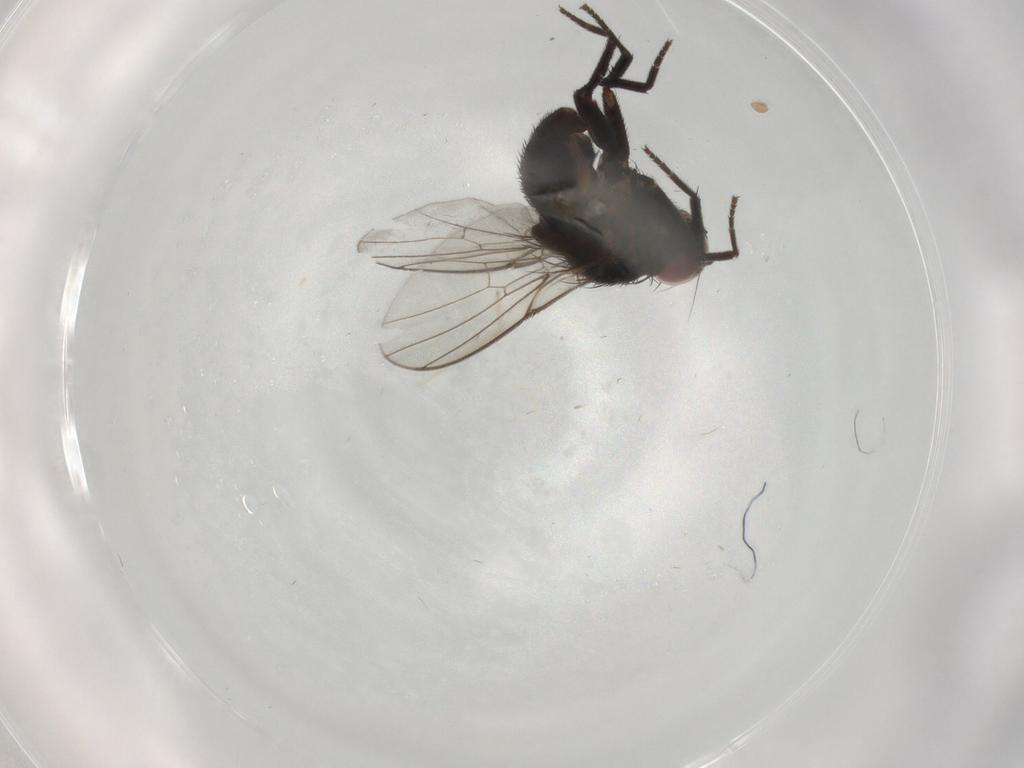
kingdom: Animalia
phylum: Arthropoda
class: Insecta
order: Diptera
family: Agromyzidae
